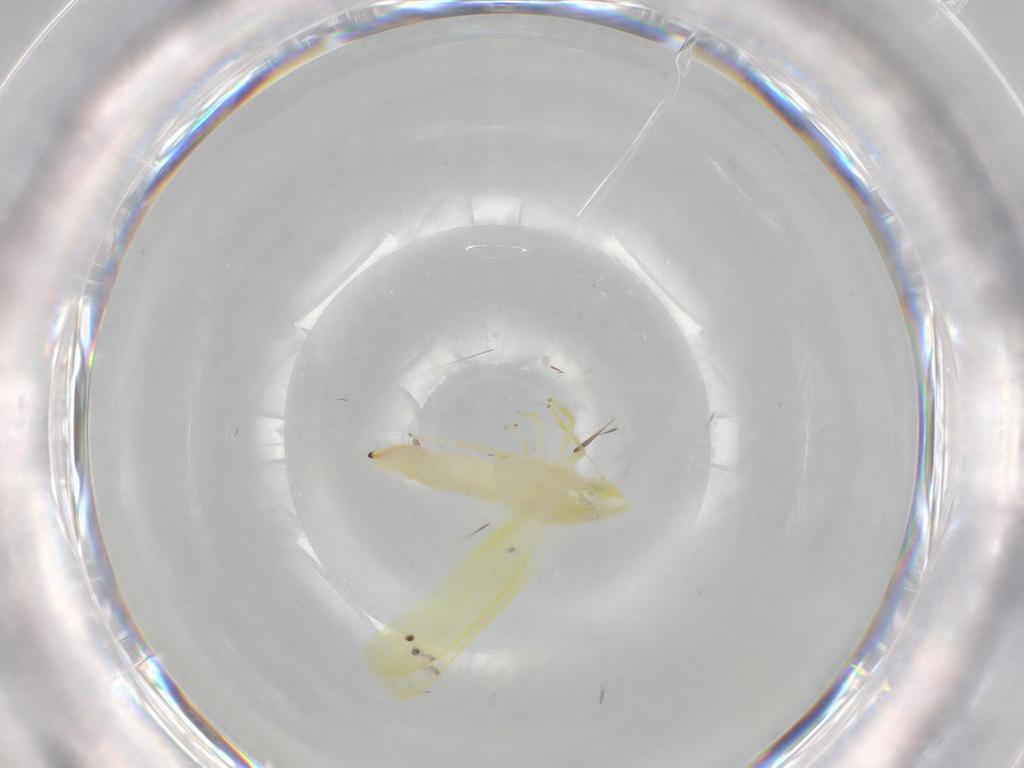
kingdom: Animalia
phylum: Arthropoda
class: Insecta
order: Hemiptera
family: Cicadellidae
